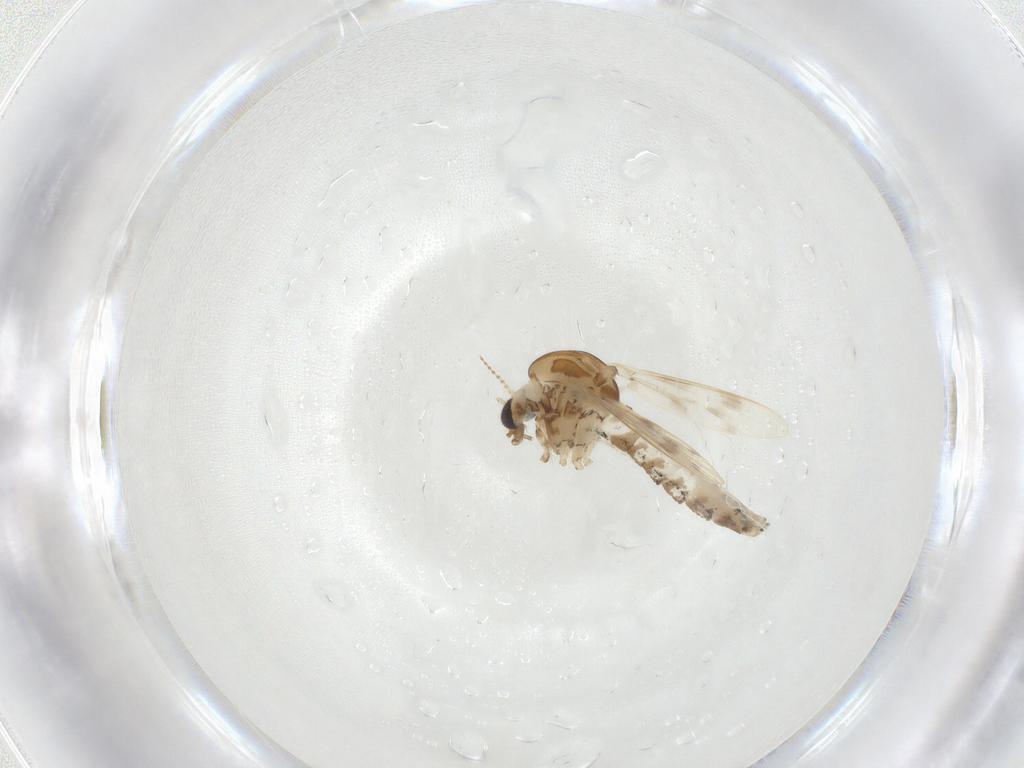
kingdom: Animalia
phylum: Arthropoda
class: Insecta
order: Diptera
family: Corethrellidae
